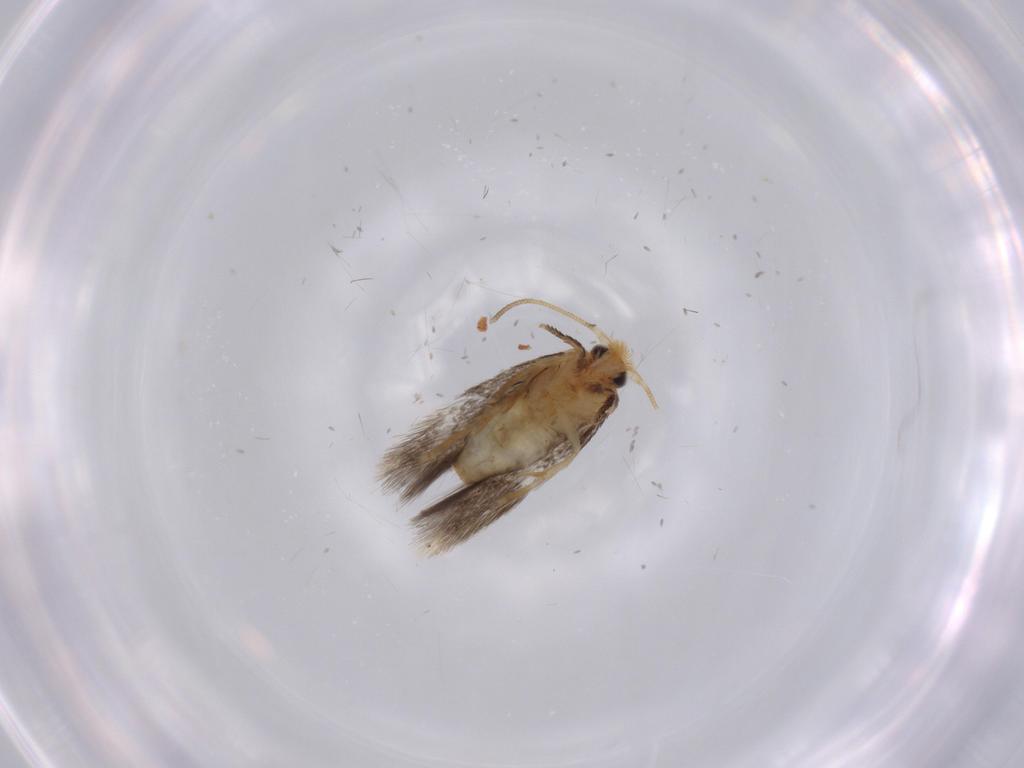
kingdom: Animalia
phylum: Arthropoda
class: Insecta
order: Lepidoptera
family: Nepticulidae
